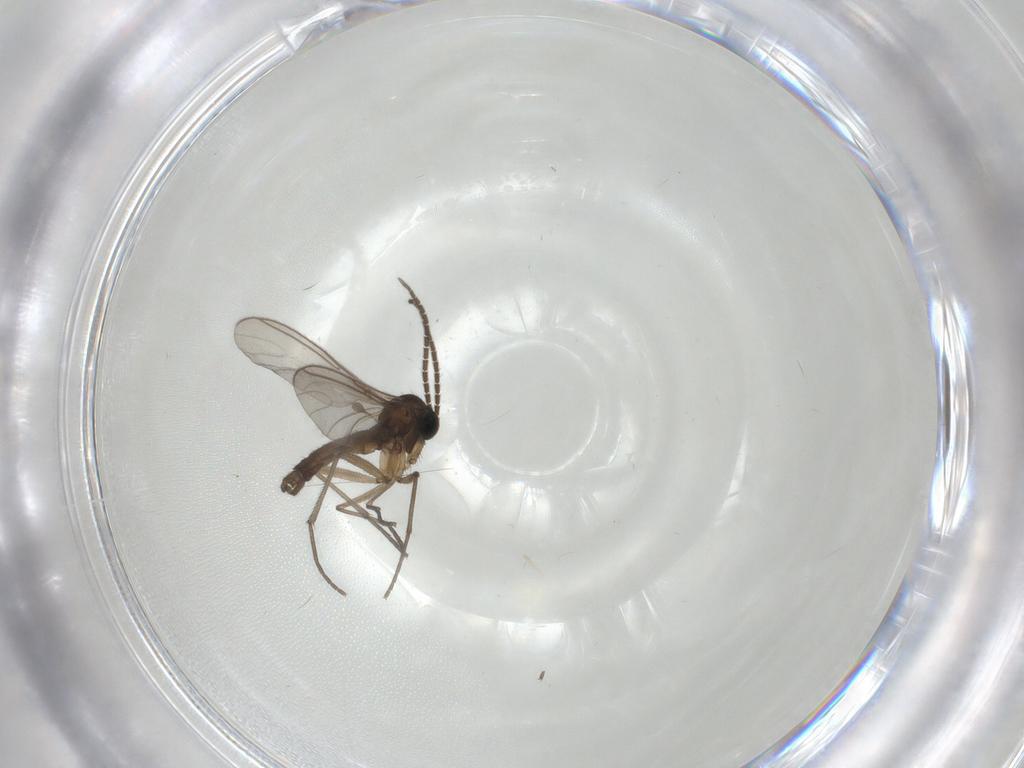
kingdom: Animalia
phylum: Arthropoda
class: Insecta
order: Diptera
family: Sciaridae
